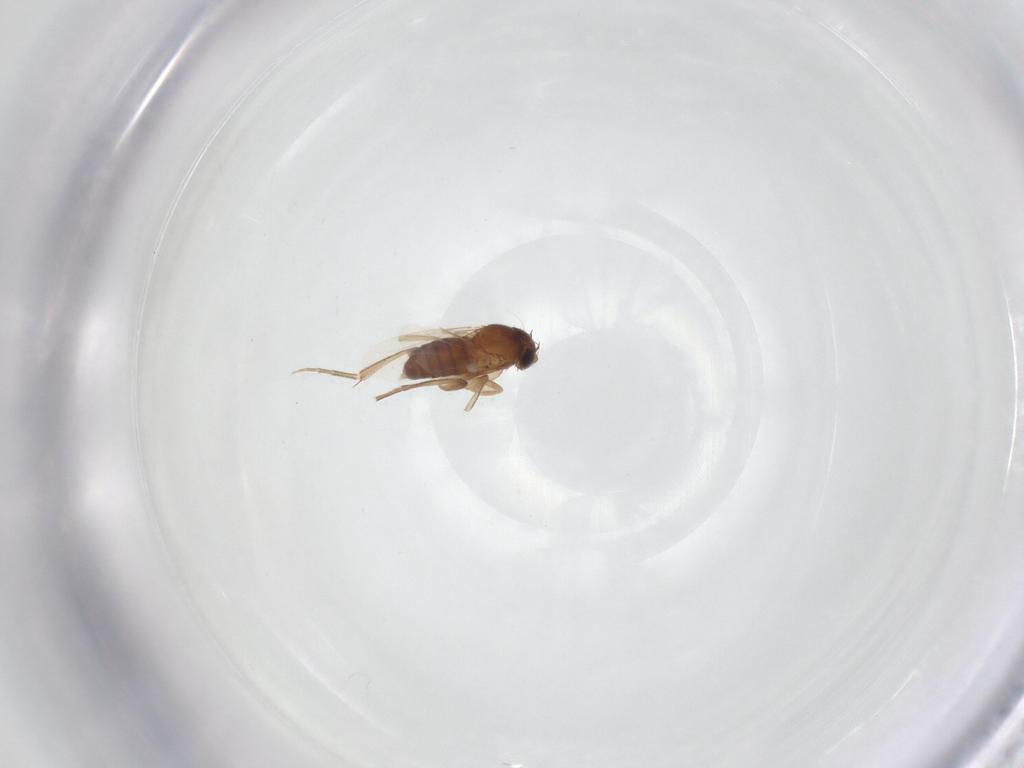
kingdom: Animalia
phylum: Arthropoda
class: Insecta
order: Diptera
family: Phoridae
